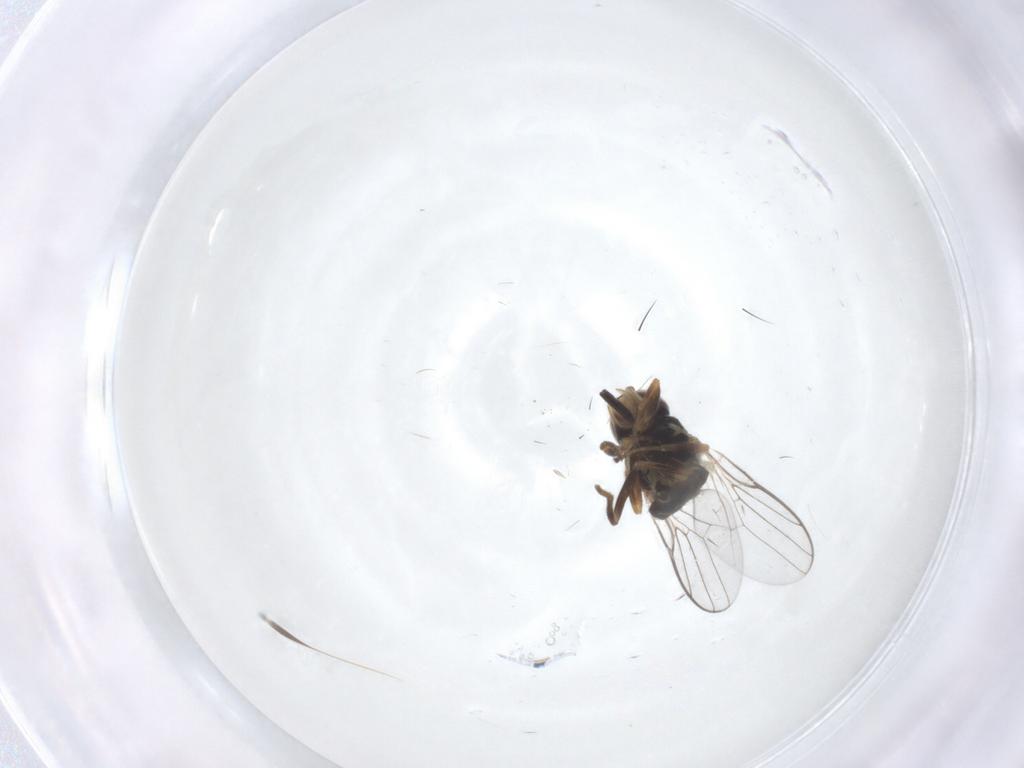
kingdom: Animalia
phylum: Arthropoda
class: Insecta
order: Diptera
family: Chloropidae
